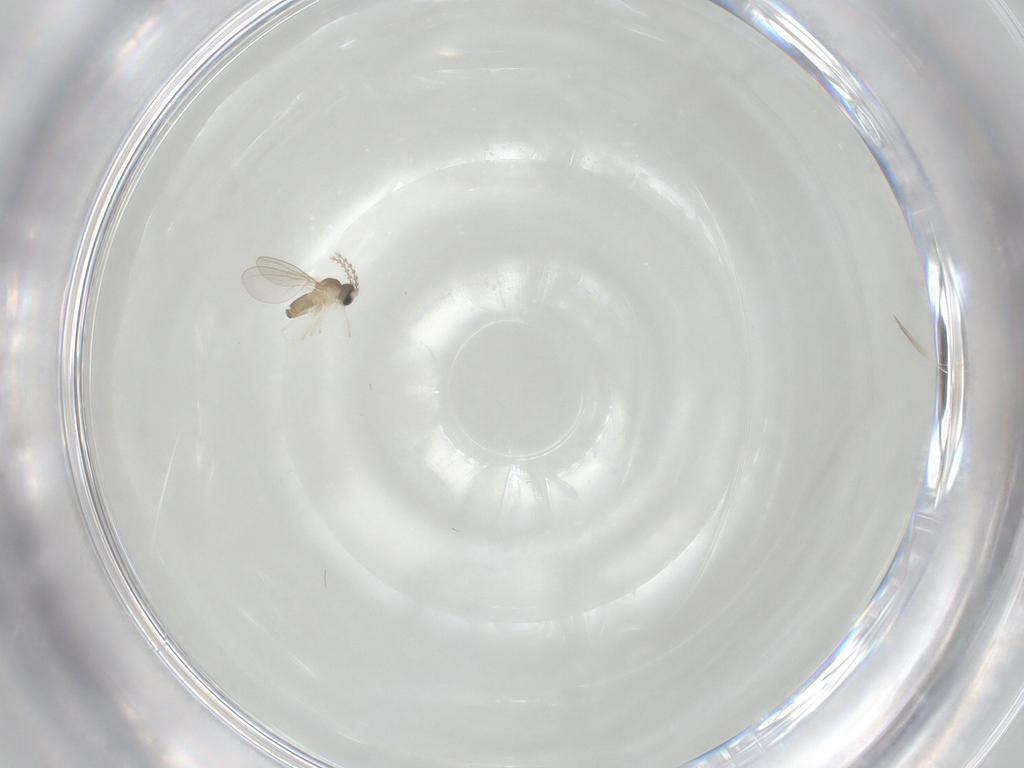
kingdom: Animalia
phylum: Arthropoda
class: Insecta
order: Diptera
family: Cecidomyiidae
